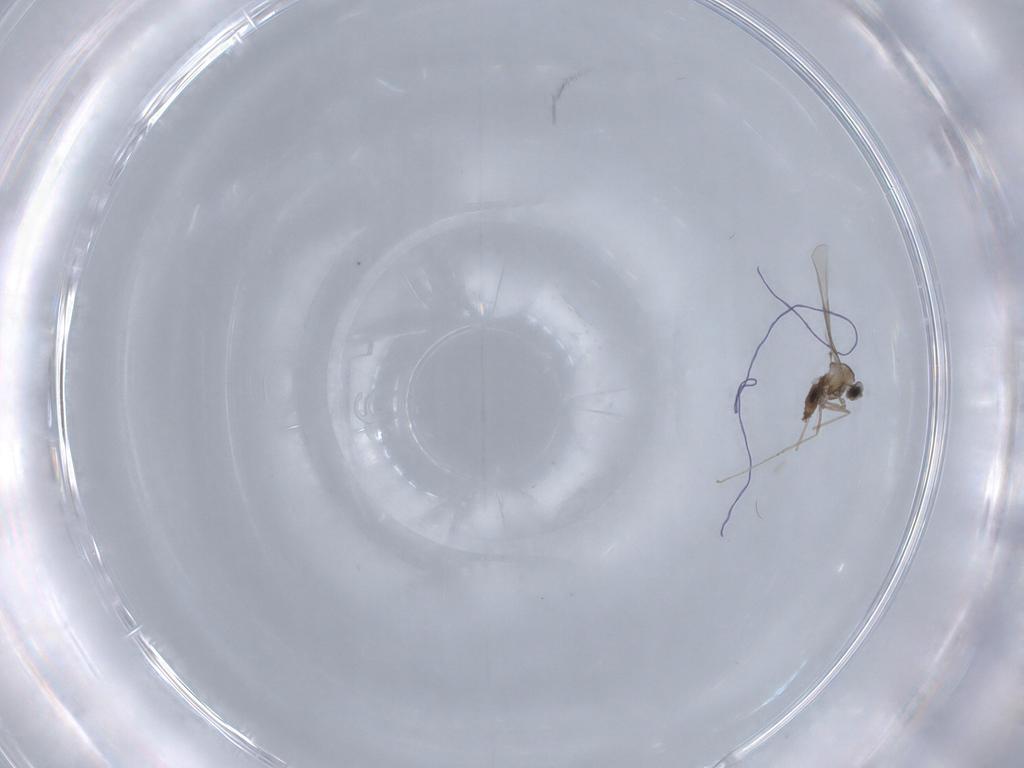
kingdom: Animalia
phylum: Arthropoda
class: Insecta
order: Diptera
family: Cecidomyiidae
